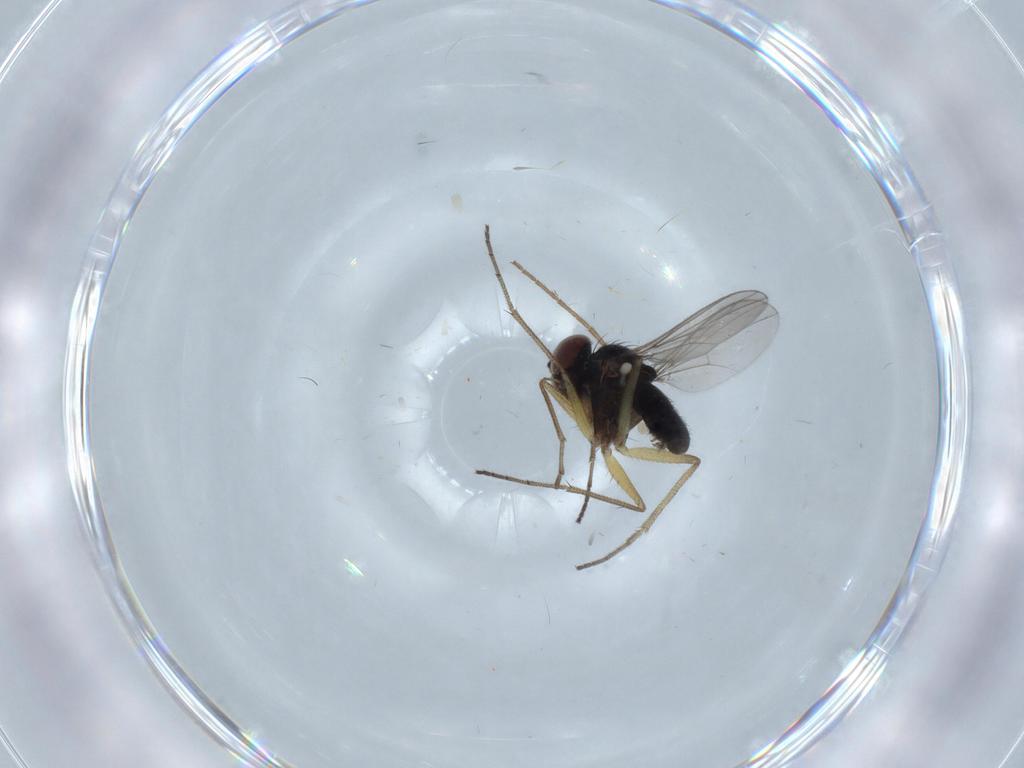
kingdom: Animalia
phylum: Arthropoda
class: Insecta
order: Diptera
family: Dolichopodidae
